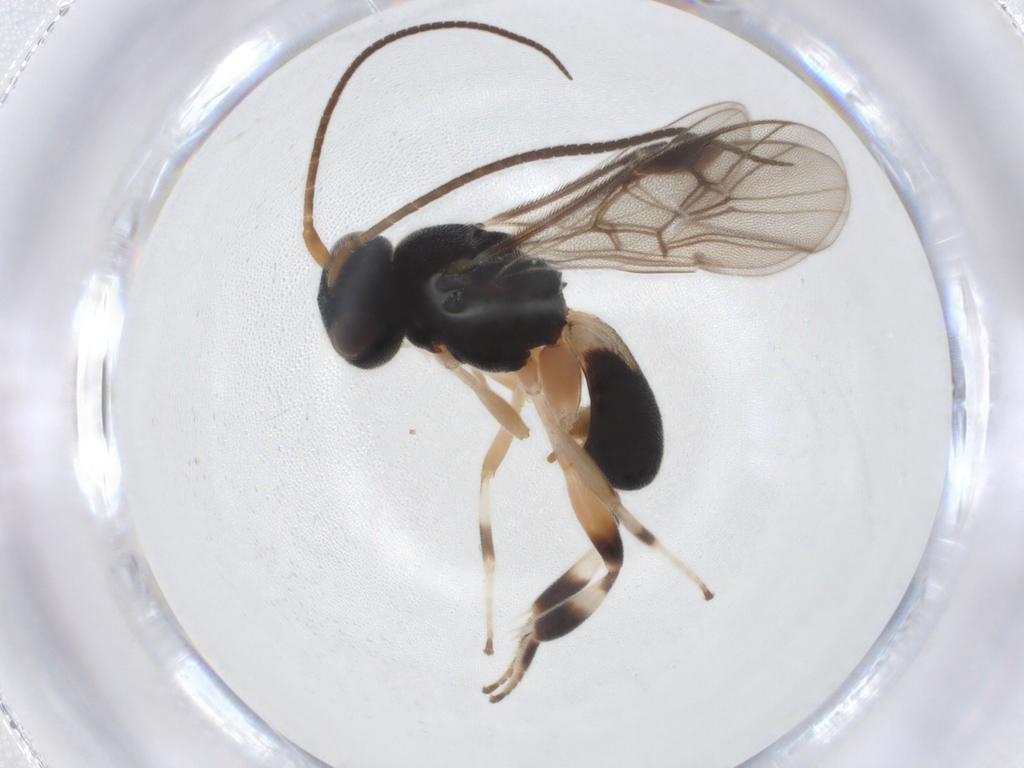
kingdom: Animalia
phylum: Arthropoda
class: Insecta
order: Hymenoptera
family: Braconidae
